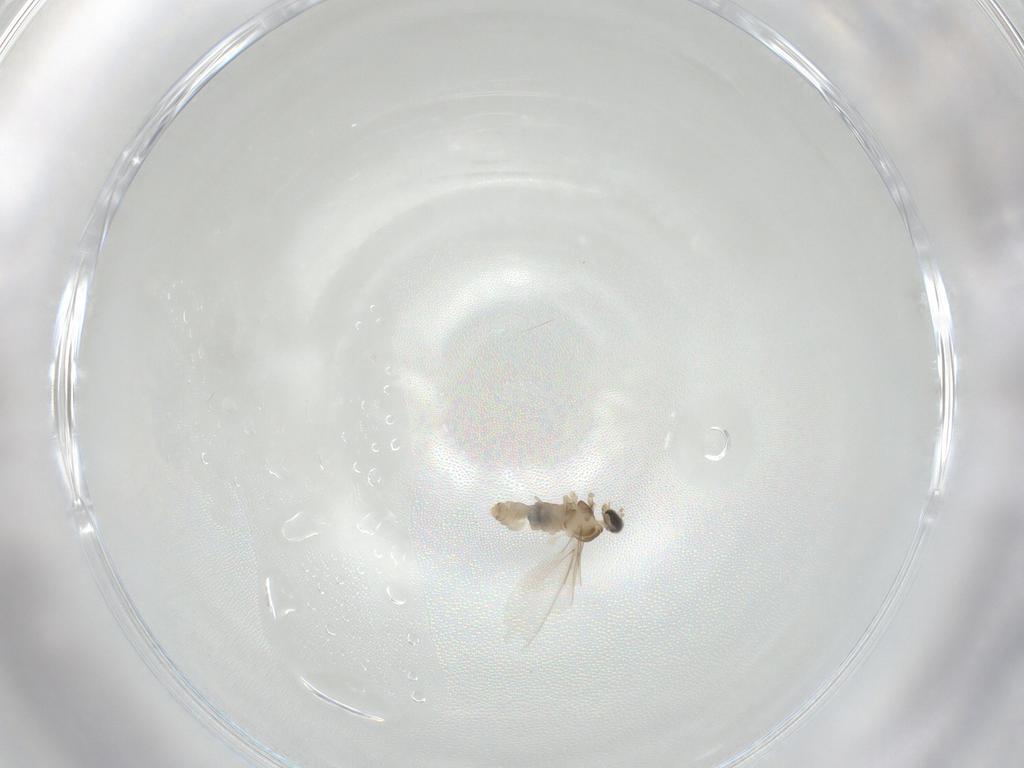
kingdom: Animalia
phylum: Arthropoda
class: Insecta
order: Diptera
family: Cecidomyiidae
